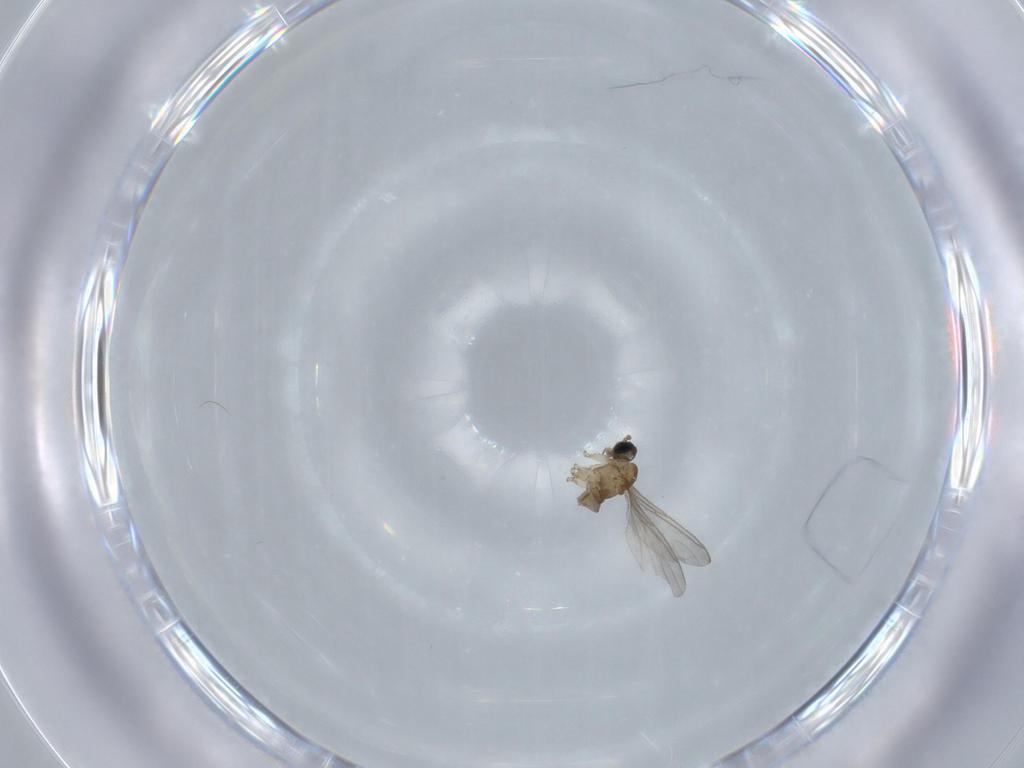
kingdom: Animalia
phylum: Arthropoda
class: Insecta
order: Diptera
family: Sciaridae
